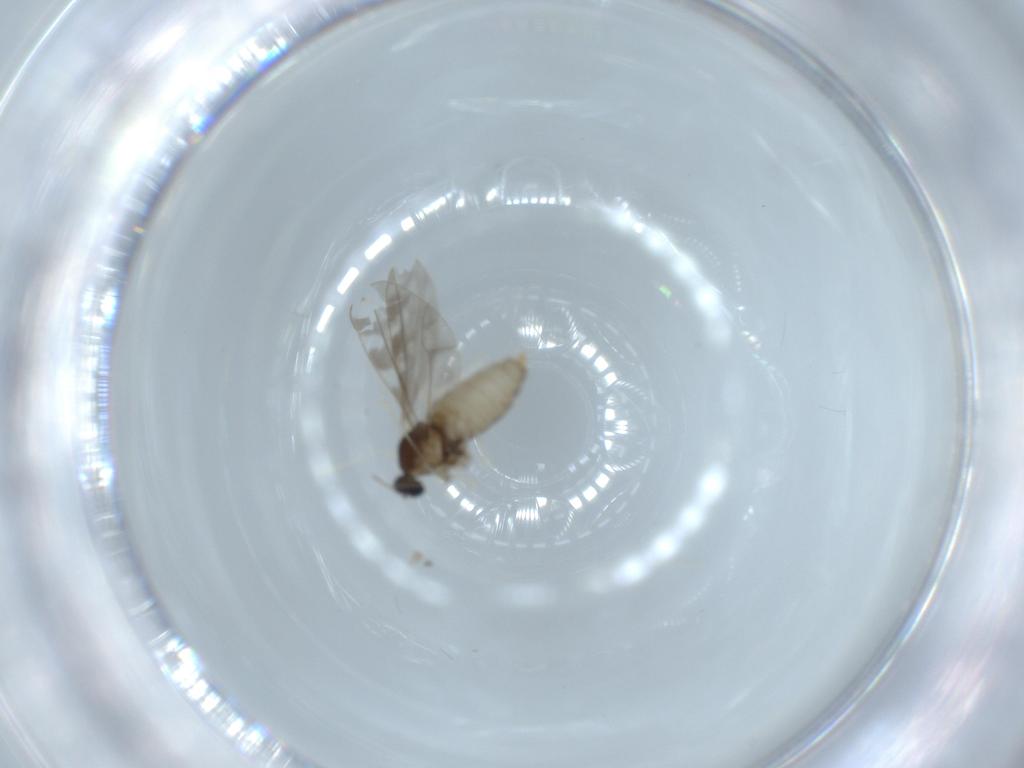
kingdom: Animalia
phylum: Arthropoda
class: Insecta
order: Diptera
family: Cecidomyiidae
